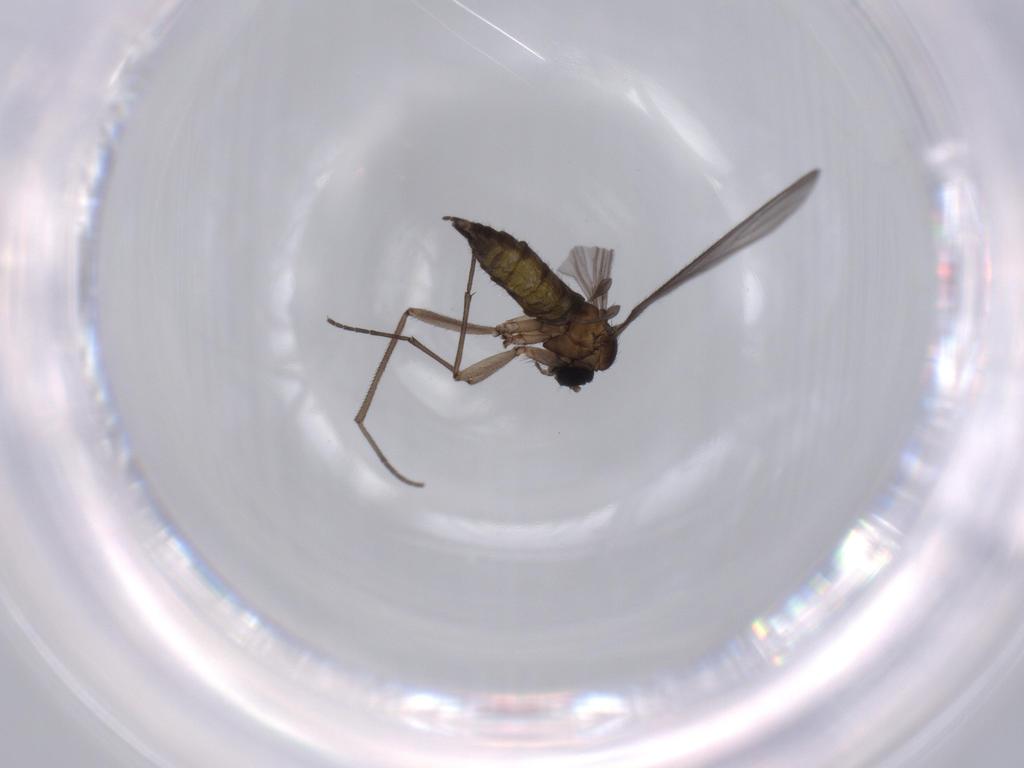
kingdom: Animalia
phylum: Arthropoda
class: Insecta
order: Diptera
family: Sciaridae
